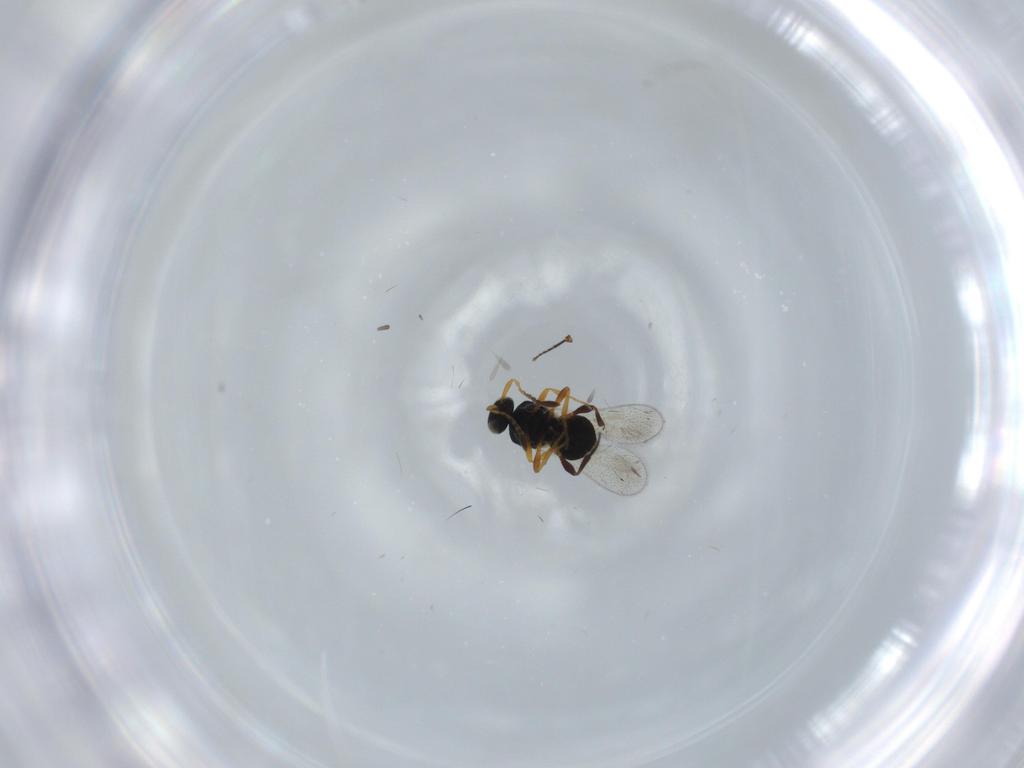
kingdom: Animalia
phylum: Arthropoda
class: Insecta
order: Hymenoptera
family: Platygastridae
